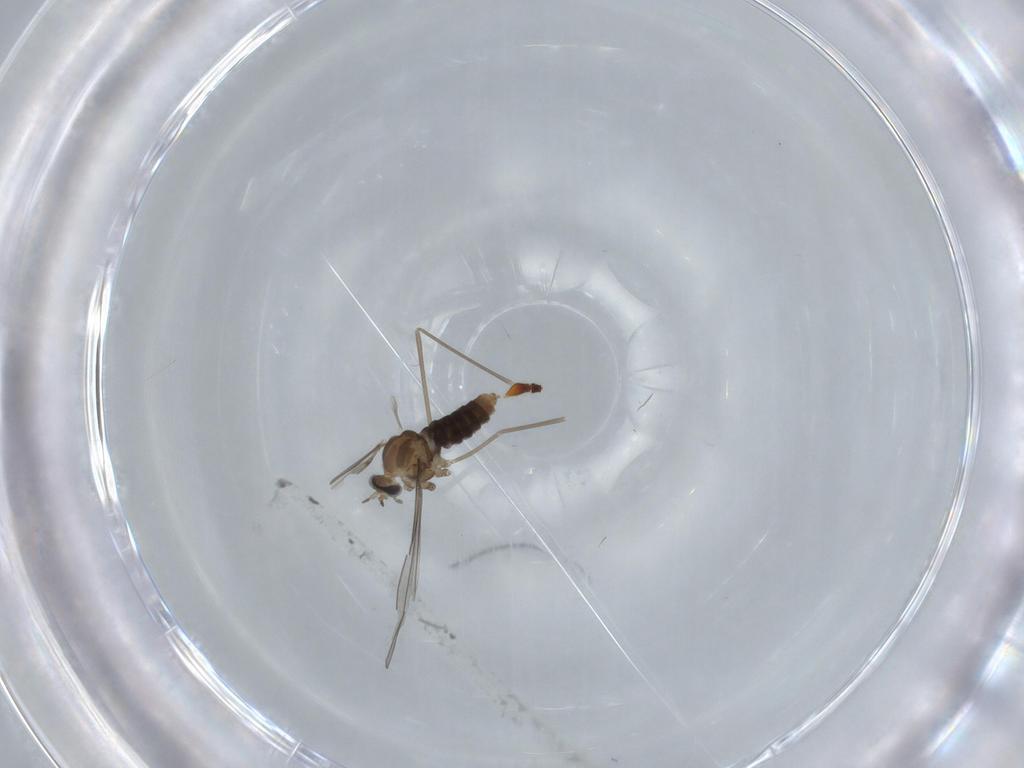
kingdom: Animalia
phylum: Arthropoda
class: Insecta
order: Diptera
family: Cecidomyiidae
